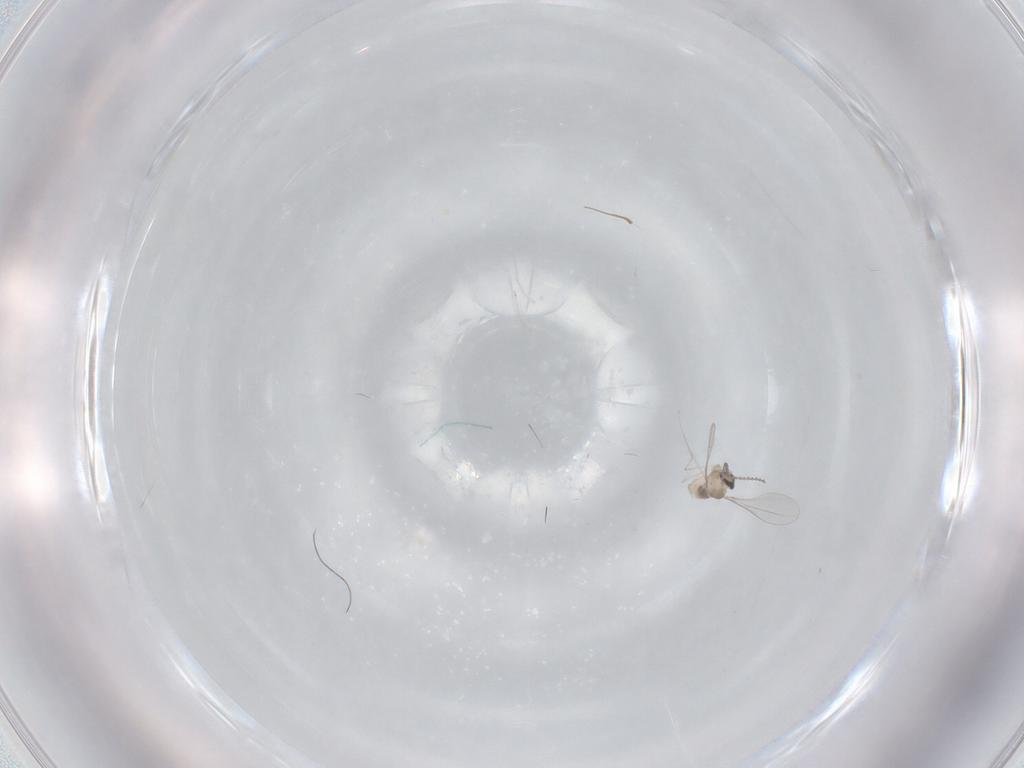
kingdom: Animalia
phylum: Arthropoda
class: Insecta
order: Diptera
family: Cecidomyiidae
